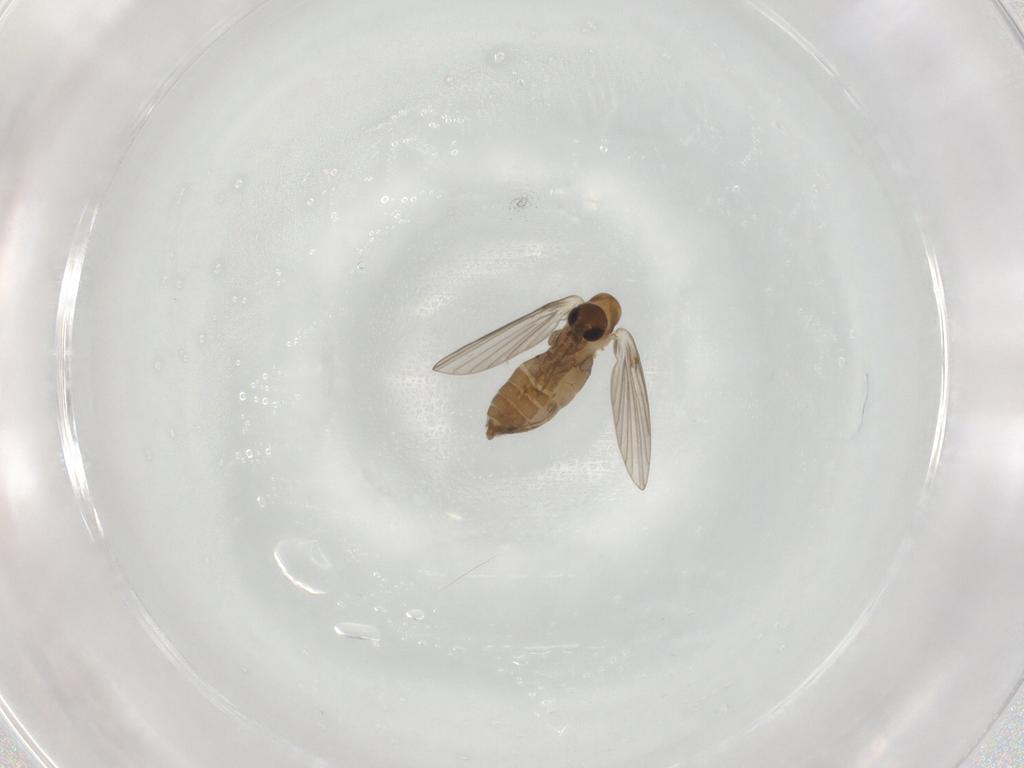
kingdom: Animalia
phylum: Arthropoda
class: Insecta
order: Diptera
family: Psychodidae
